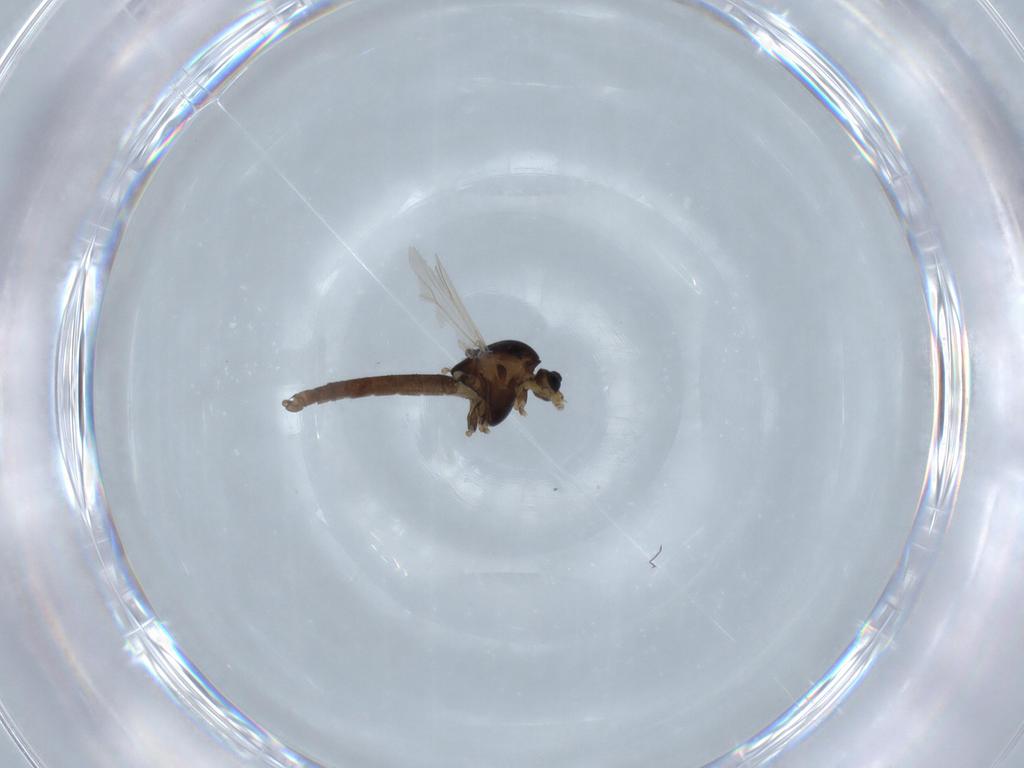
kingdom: Animalia
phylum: Arthropoda
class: Insecta
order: Diptera
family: Chironomidae
